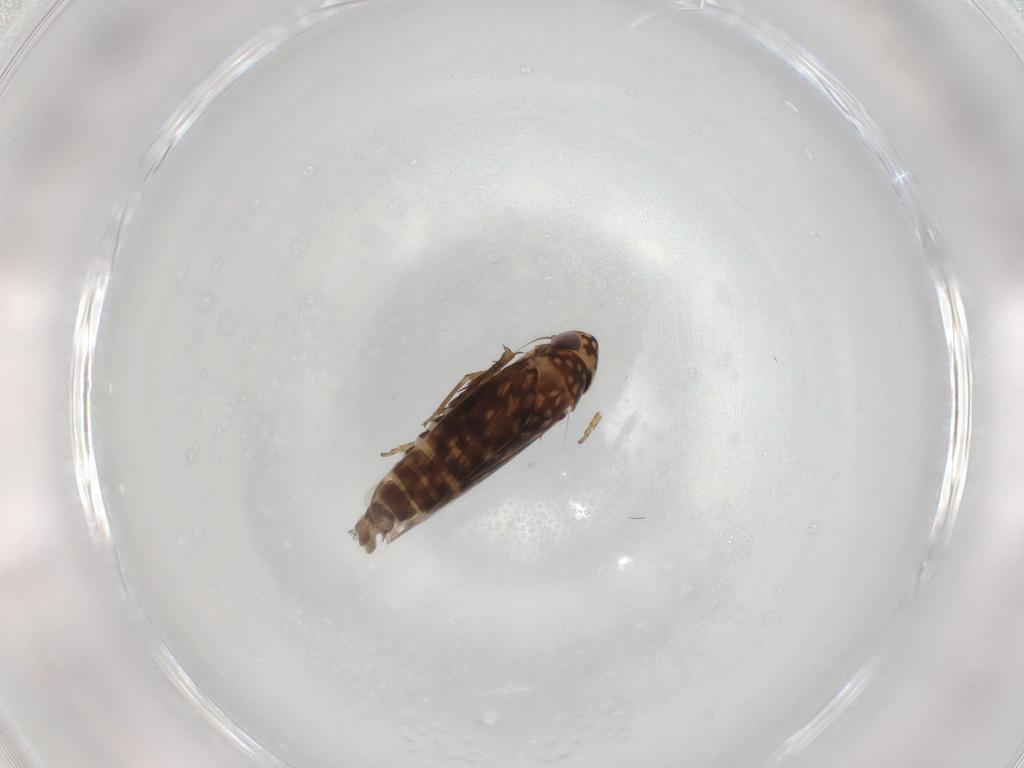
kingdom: Animalia
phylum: Arthropoda
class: Insecta
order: Hemiptera
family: Cicadellidae
